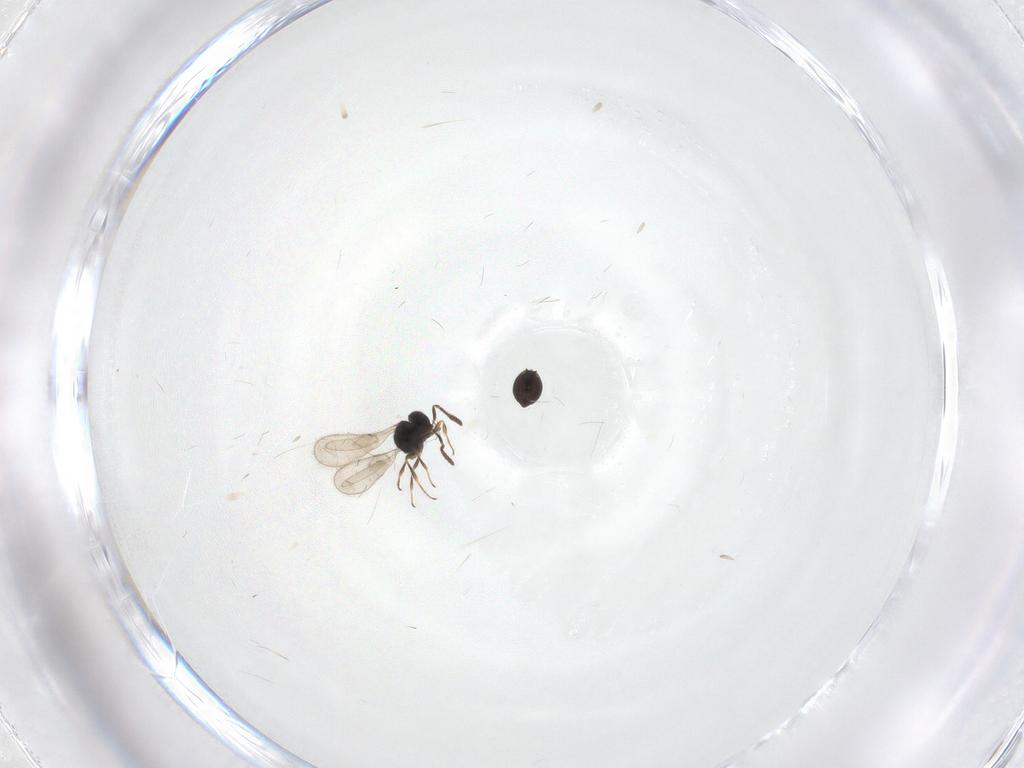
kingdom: Animalia
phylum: Arthropoda
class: Insecta
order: Hymenoptera
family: Scelionidae
